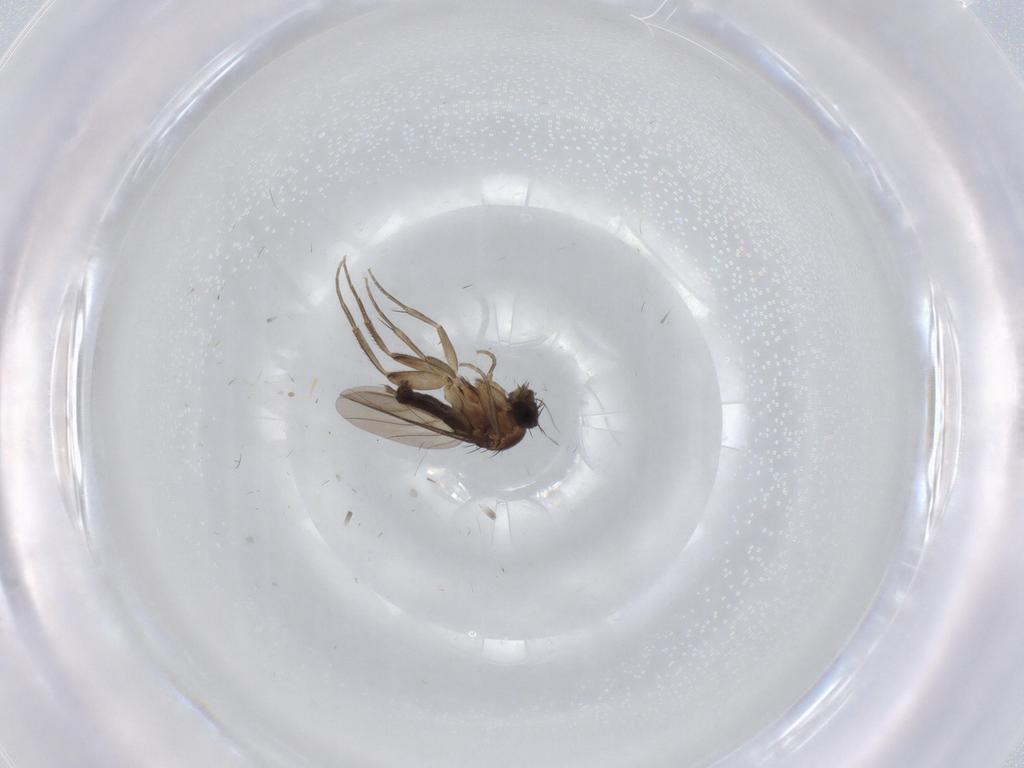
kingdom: Animalia
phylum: Arthropoda
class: Insecta
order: Diptera
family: Phoridae
